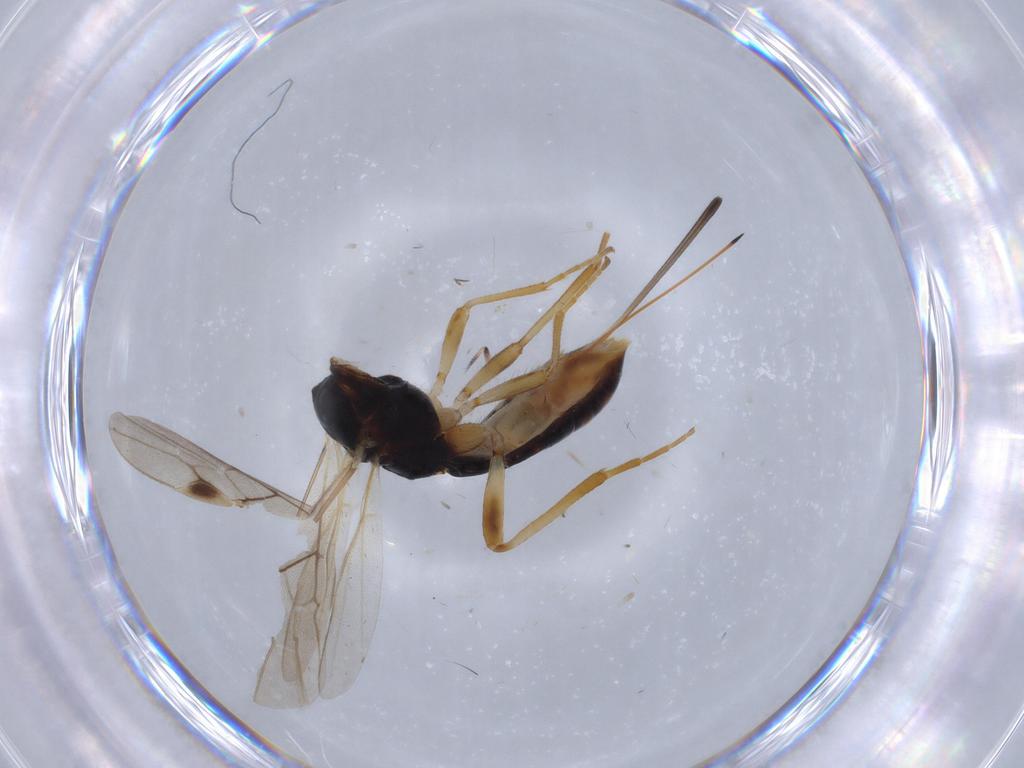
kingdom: Animalia
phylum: Arthropoda
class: Insecta
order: Hymenoptera
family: Braconidae
